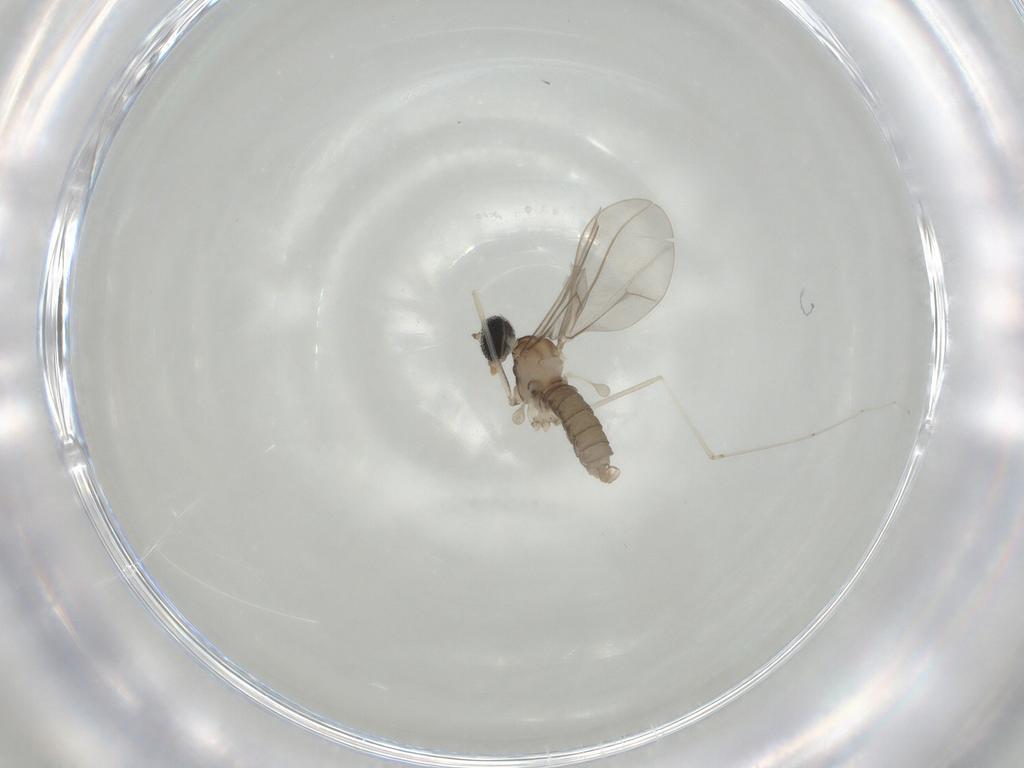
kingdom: Animalia
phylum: Arthropoda
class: Insecta
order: Diptera
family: Cecidomyiidae
